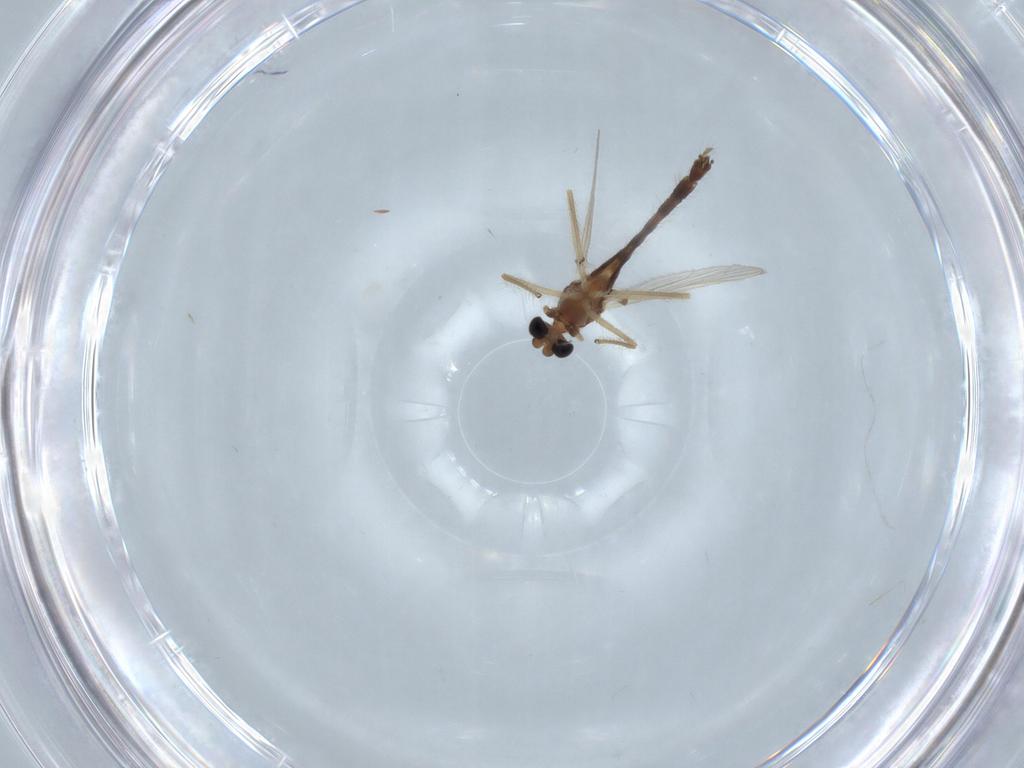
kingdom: Animalia
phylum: Arthropoda
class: Insecta
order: Diptera
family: Chironomidae
